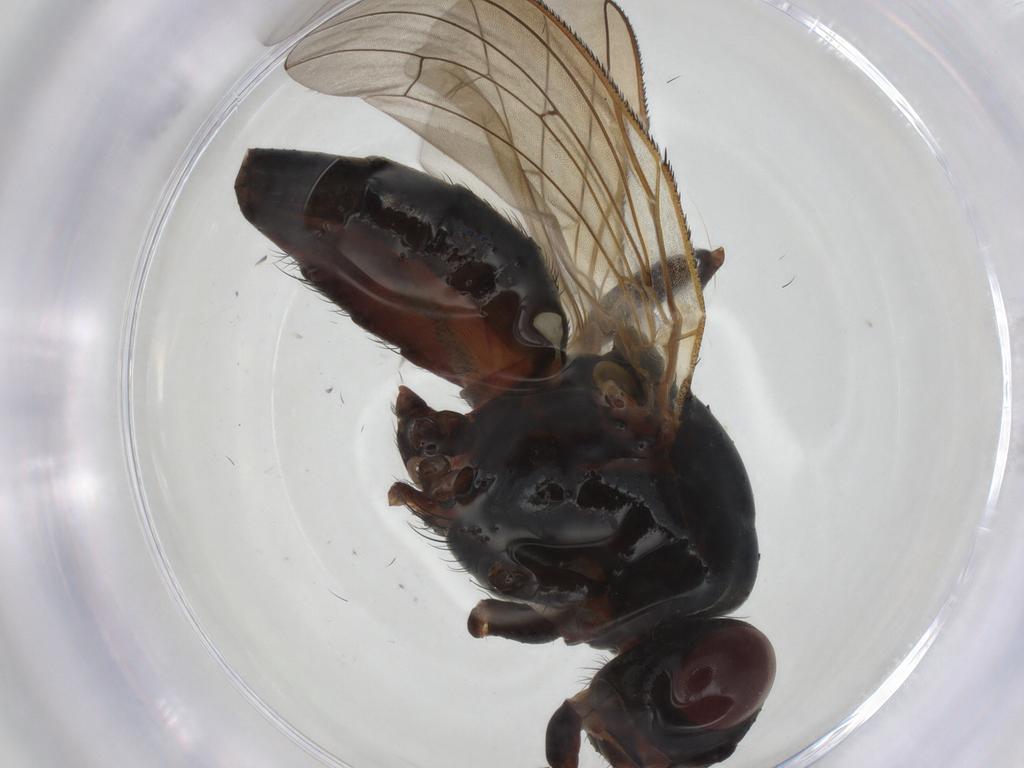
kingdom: Animalia
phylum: Arthropoda
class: Insecta
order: Diptera
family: Anthomyiidae
